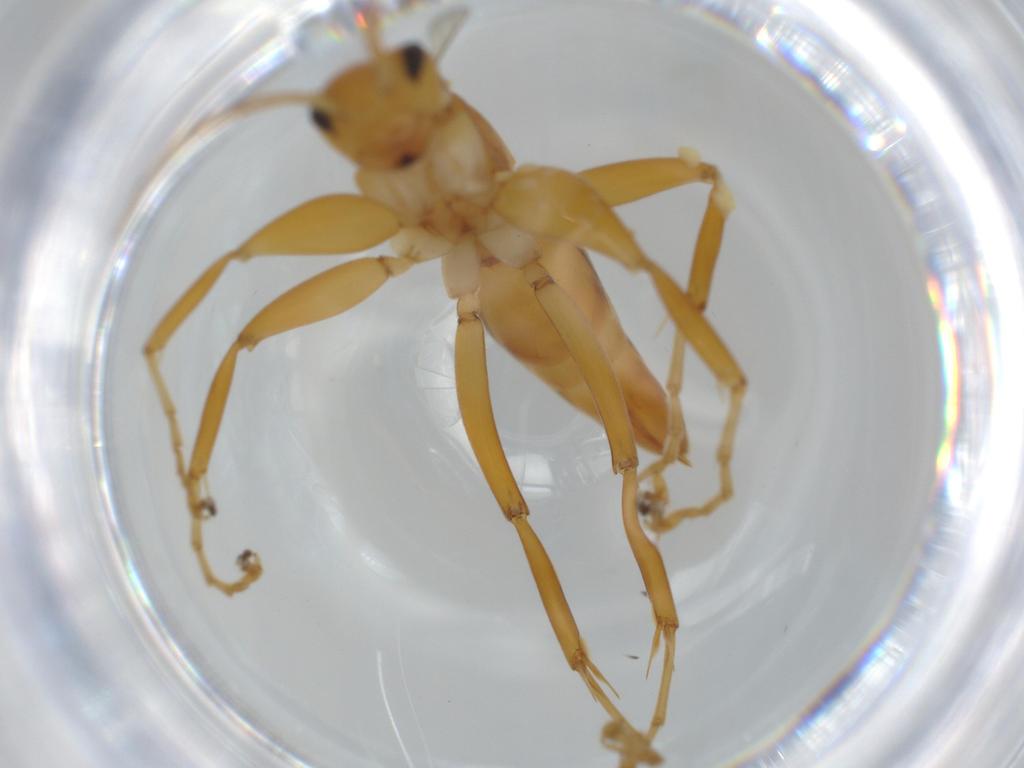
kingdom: Animalia
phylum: Arthropoda
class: Insecta
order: Hymenoptera
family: Rhopalosomatidae
